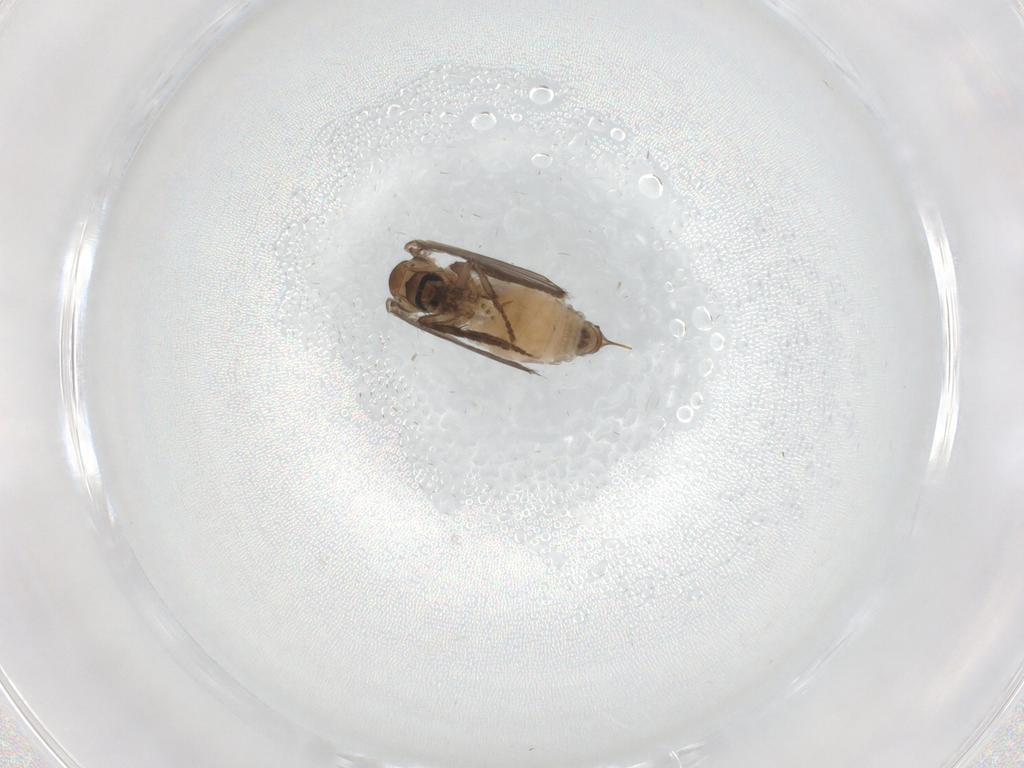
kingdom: Animalia
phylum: Arthropoda
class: Insecta
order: Diptera
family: Psychodidae
